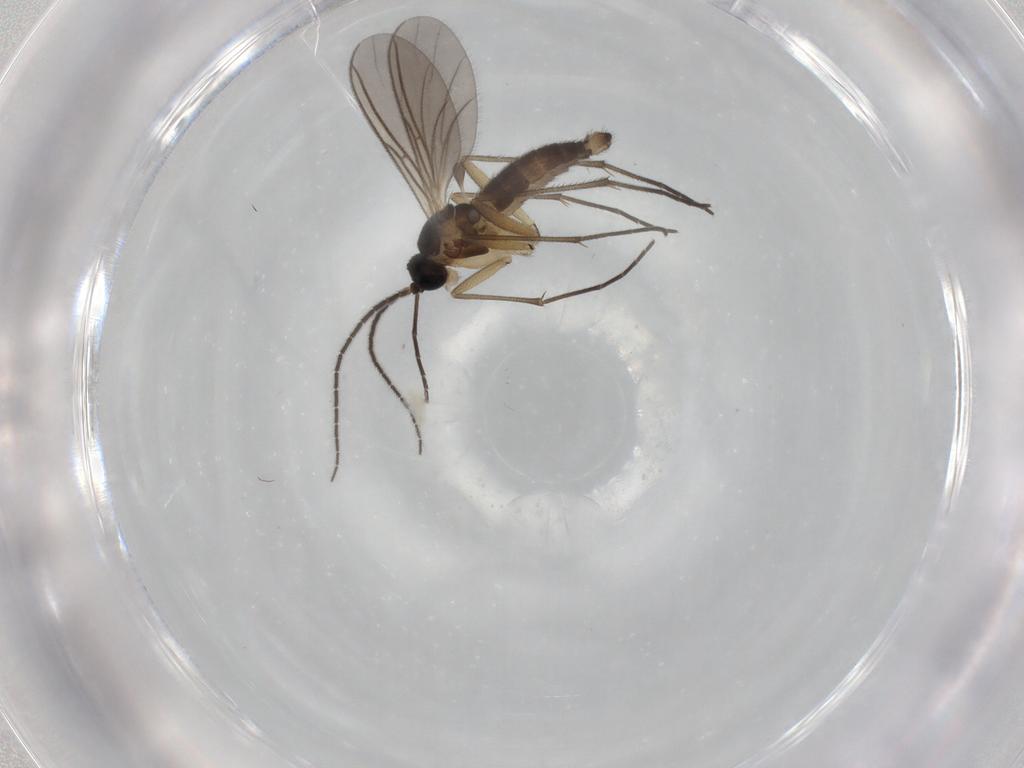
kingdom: Animalia
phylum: Arthropoda
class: Insecta
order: Diptera
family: Sciaridae
